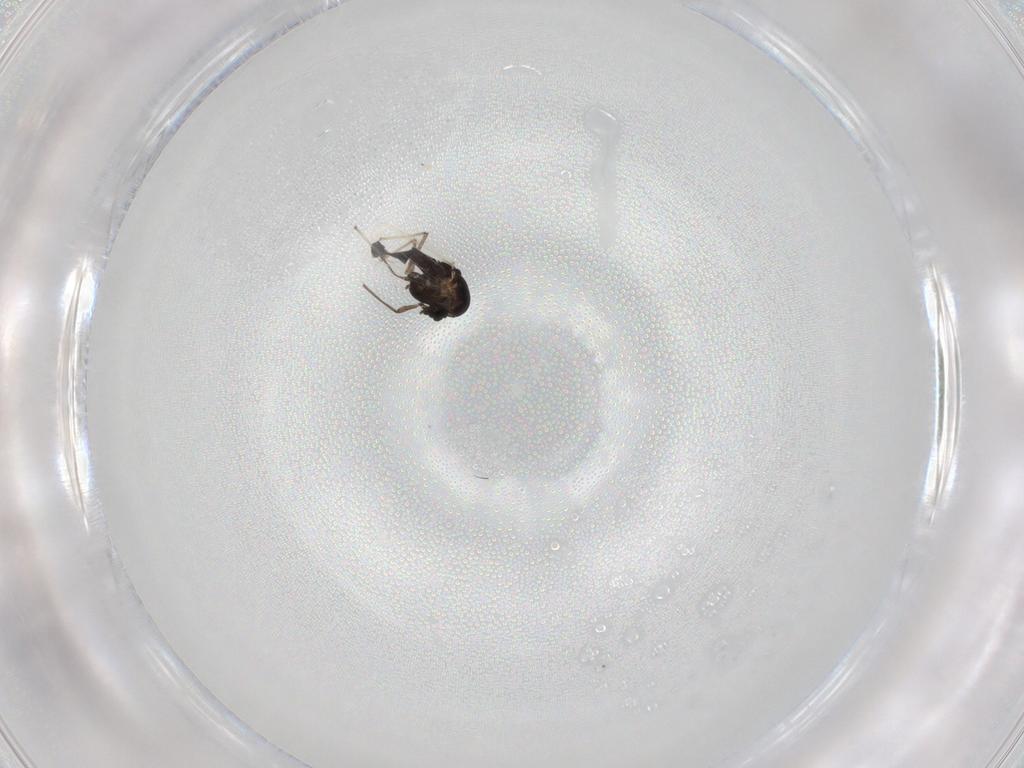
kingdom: Animalia
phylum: Arthropoda
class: Insecta
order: Diptera
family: Chironomidae
